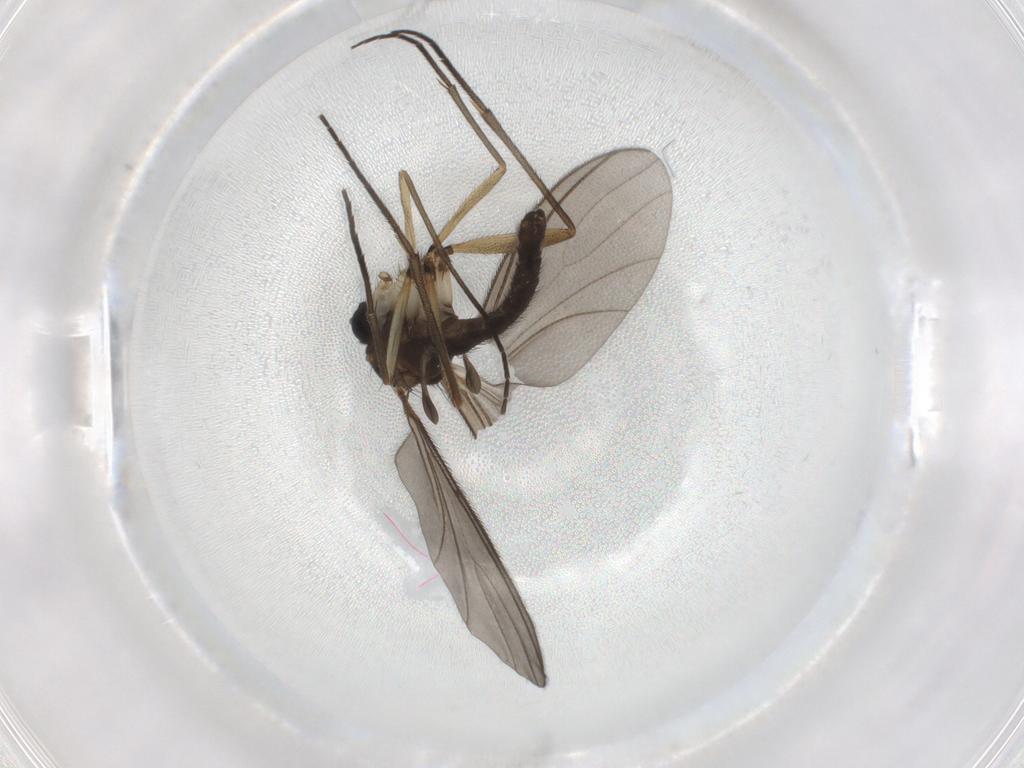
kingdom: Animalia
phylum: Arthropoda
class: Insecta
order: Diptera
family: Sciaridae
